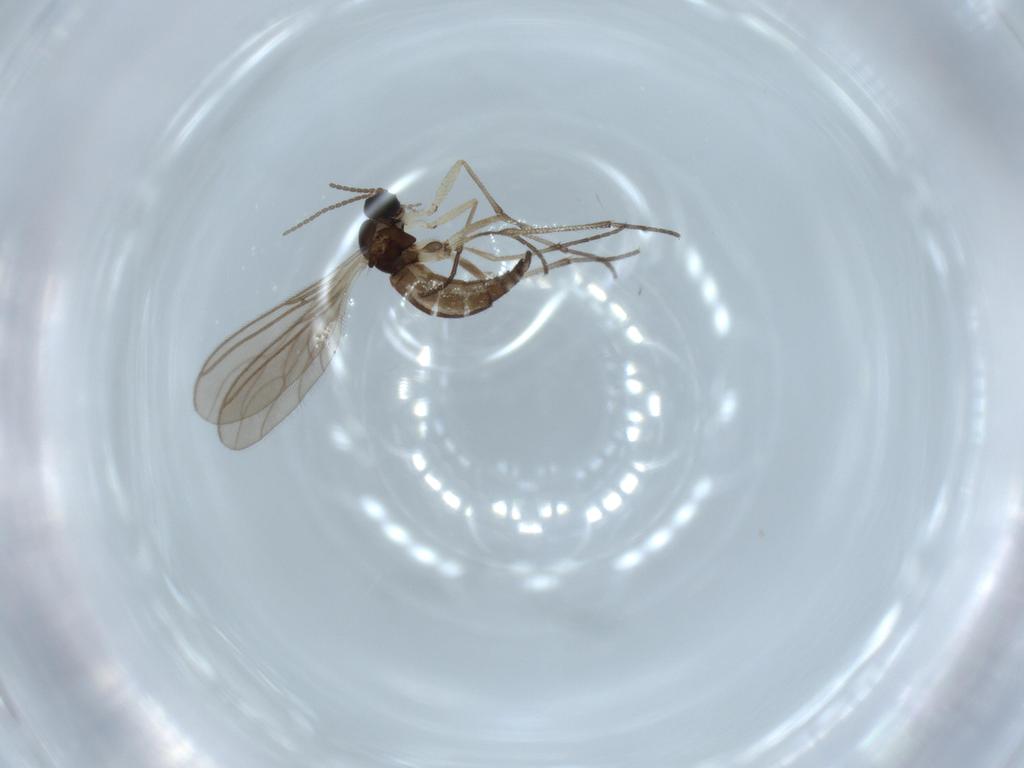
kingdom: Animalia
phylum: Arthropoda
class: Insecta
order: Diptera
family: Sciaridae
